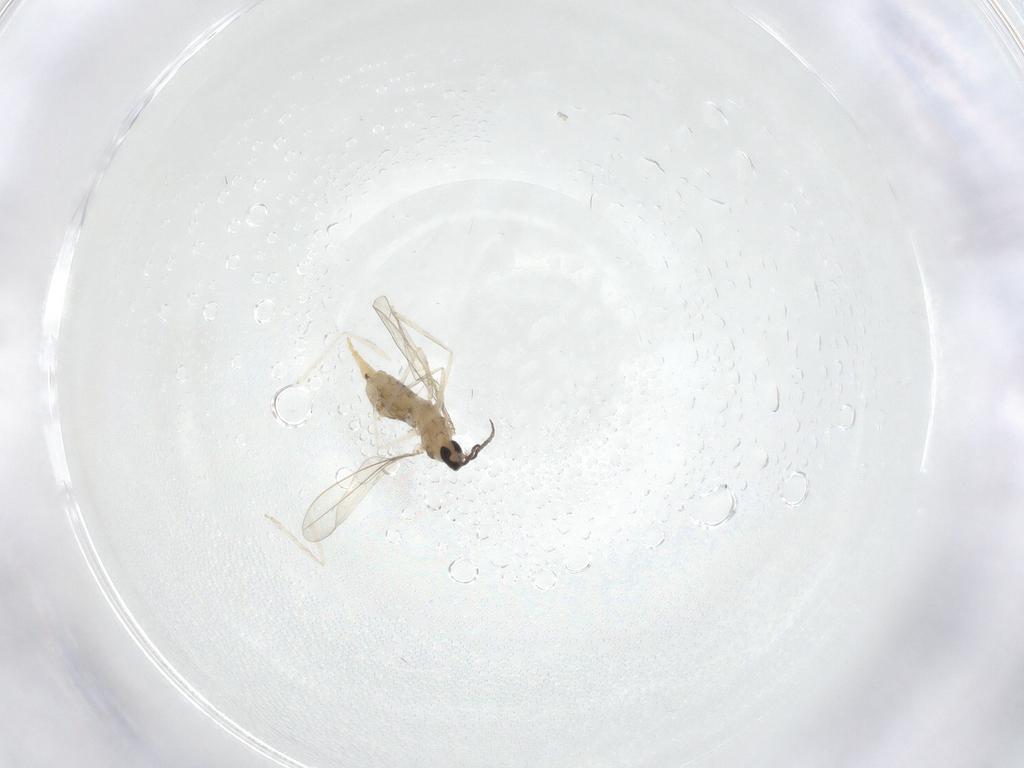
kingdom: Animalia
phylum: Arthropoda
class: Insecta
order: Diptera
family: Cecidomyiidae
